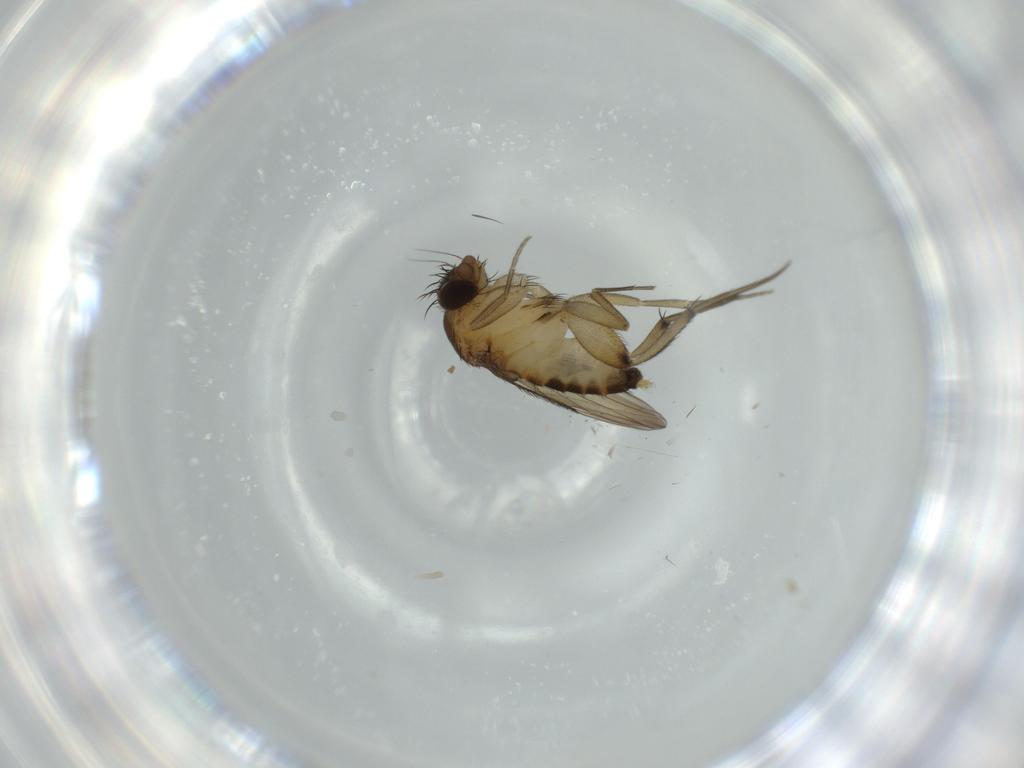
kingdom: Animalia
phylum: Arthropoda
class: Insecta
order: Diptera
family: Phoridae
